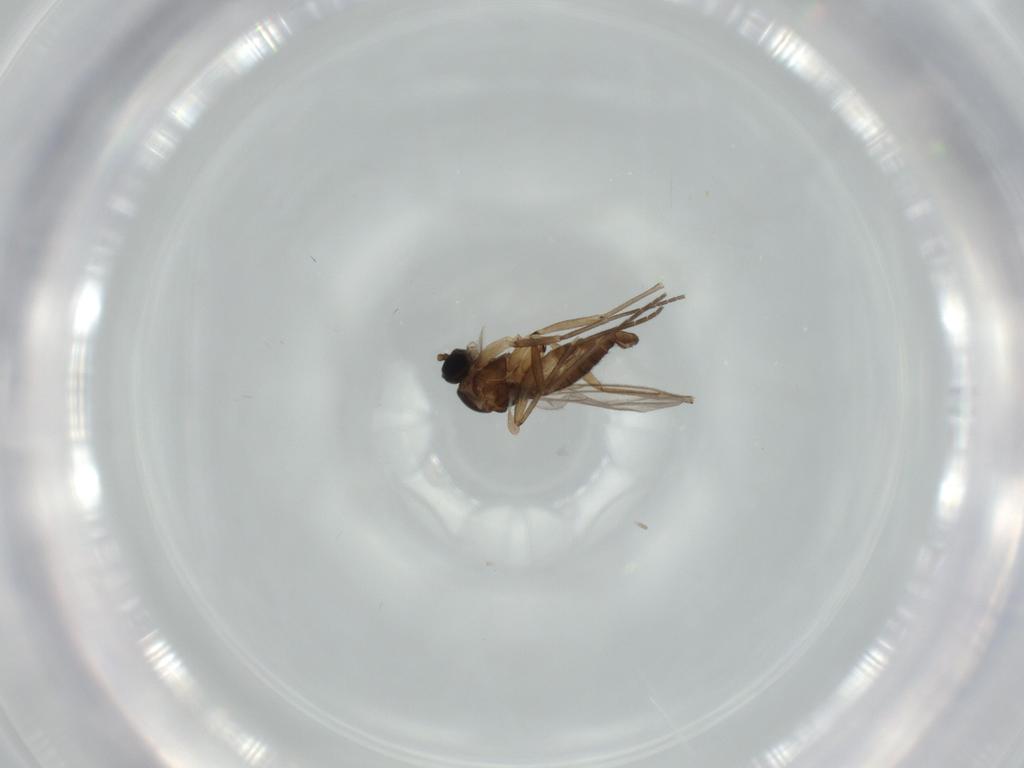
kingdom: Animalia
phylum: Arthropoda
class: Insecta
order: Diptera
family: Anthomyiidae
